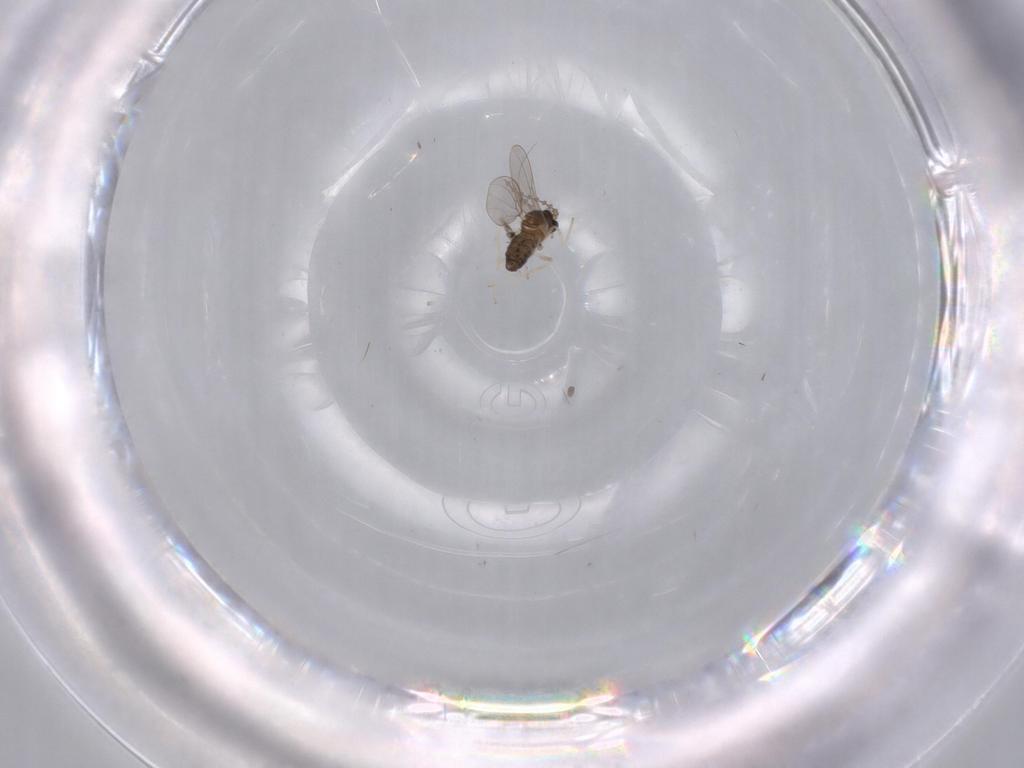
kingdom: Animalia
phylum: Arthropoda
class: Insecta
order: Diptera
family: Cecidomyiidae
